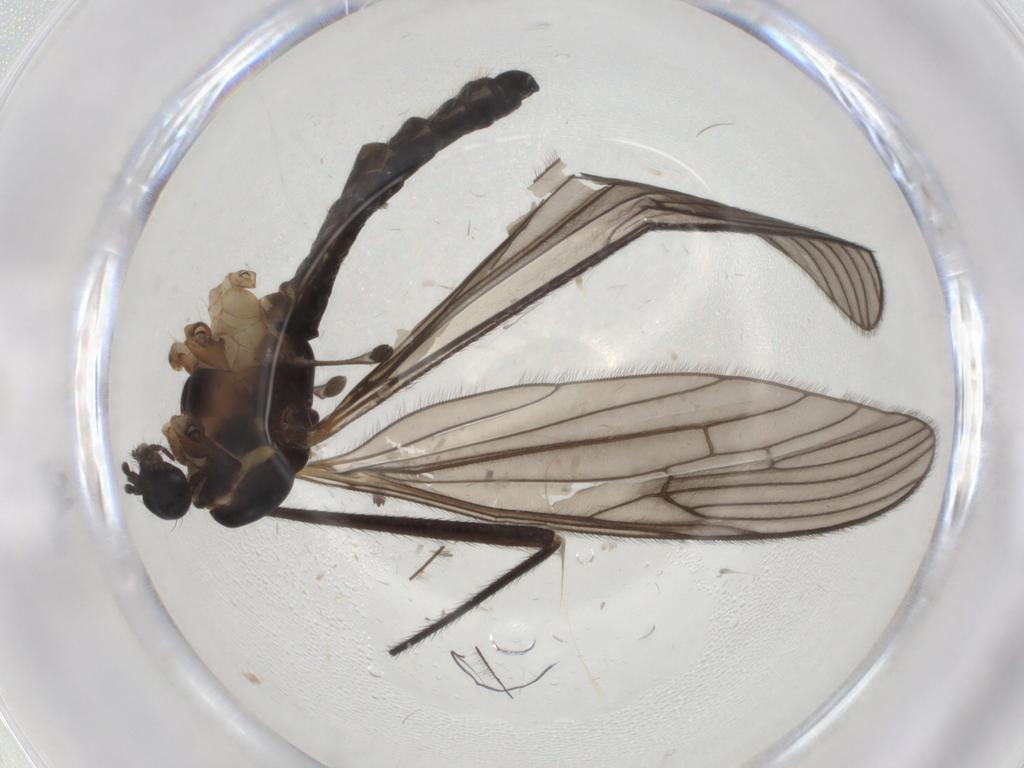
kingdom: Animalia
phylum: Arthropoda
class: Insecta
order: Diptera
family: Limoniidae
